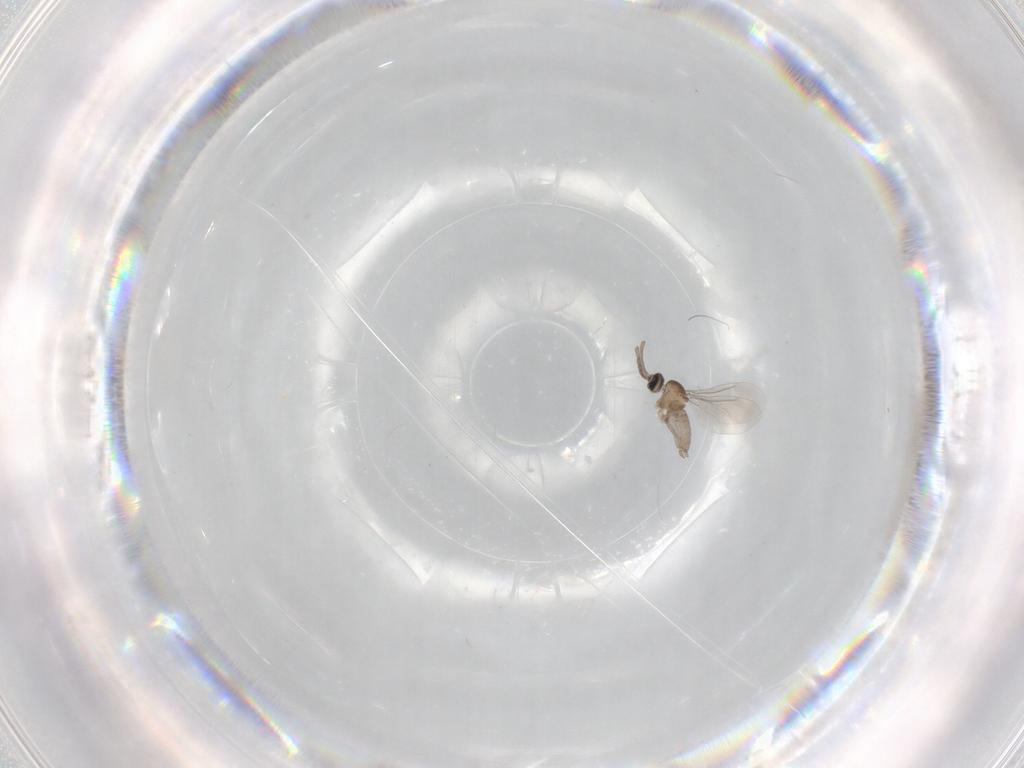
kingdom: Animalia
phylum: Arthropoda
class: Insecta
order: Diptera
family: Cecidomyiidae
